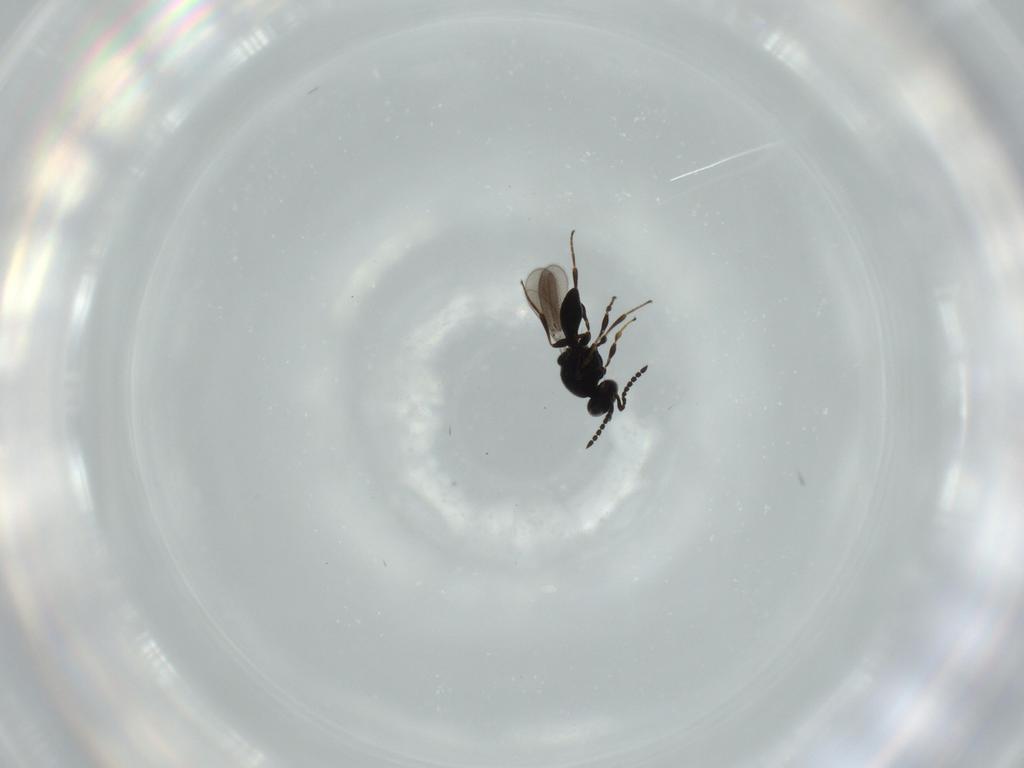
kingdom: Animalia
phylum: Arthropoda
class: Insecta
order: Hymenoptera
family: Platygastridae
